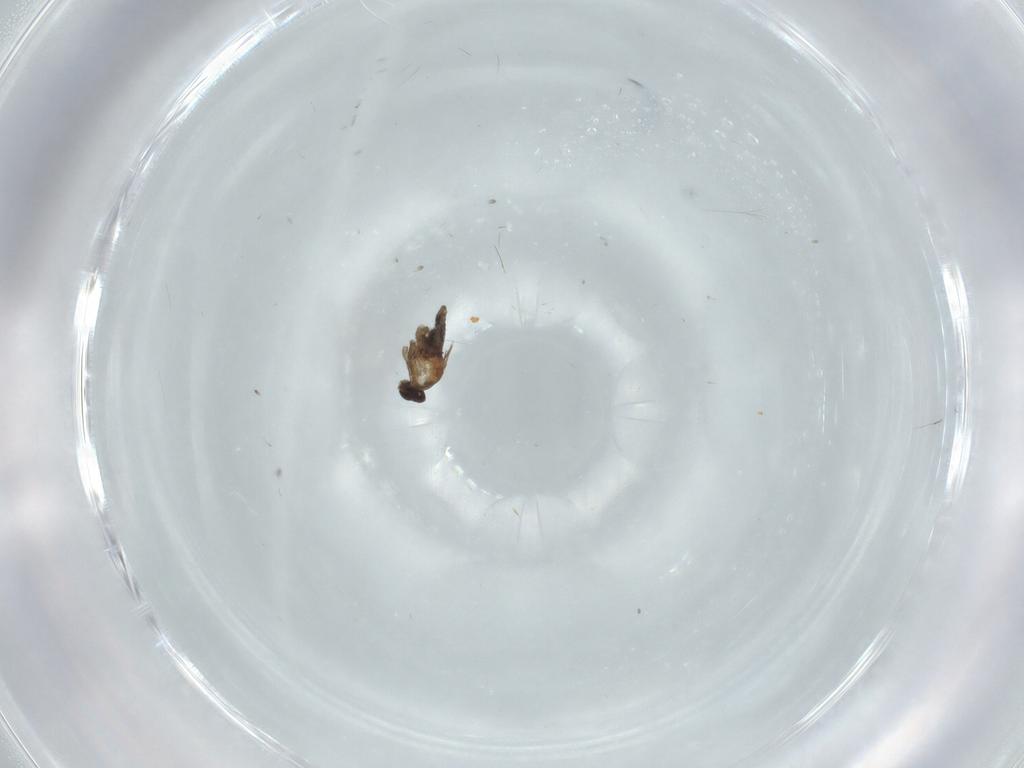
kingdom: Animalia
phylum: Arthropoda
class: Insecta
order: Diptera
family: Cecidomyiidae
